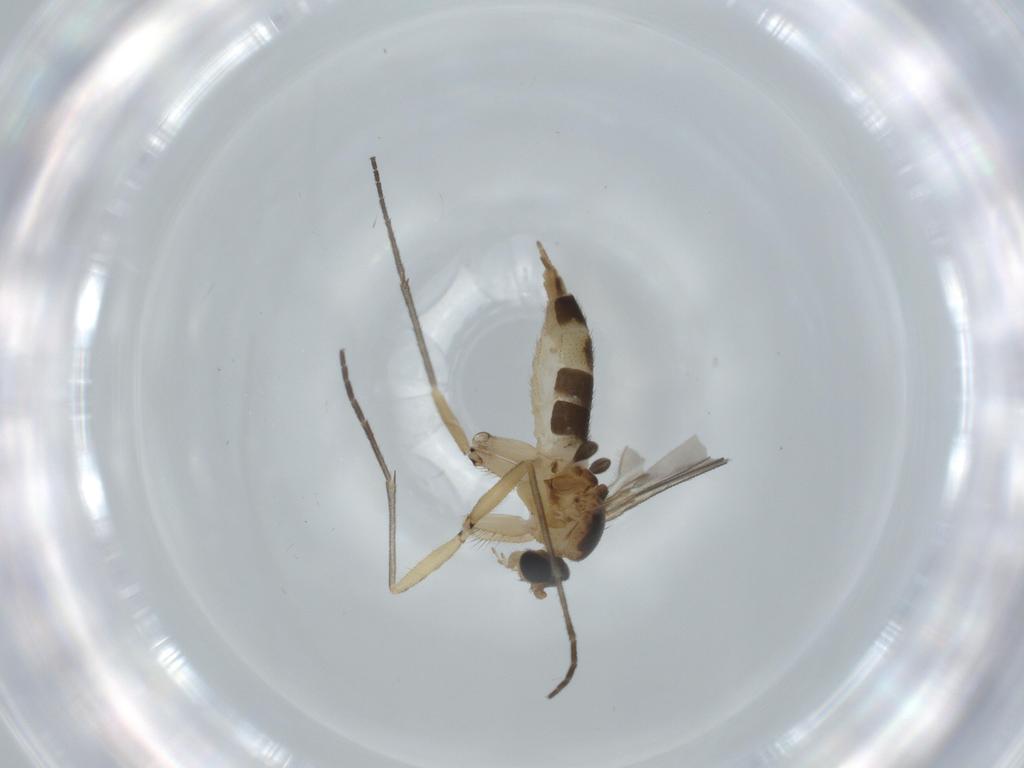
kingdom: Animalia
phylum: Arthropoda
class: Insecta
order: Diptera
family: Sciaridae
